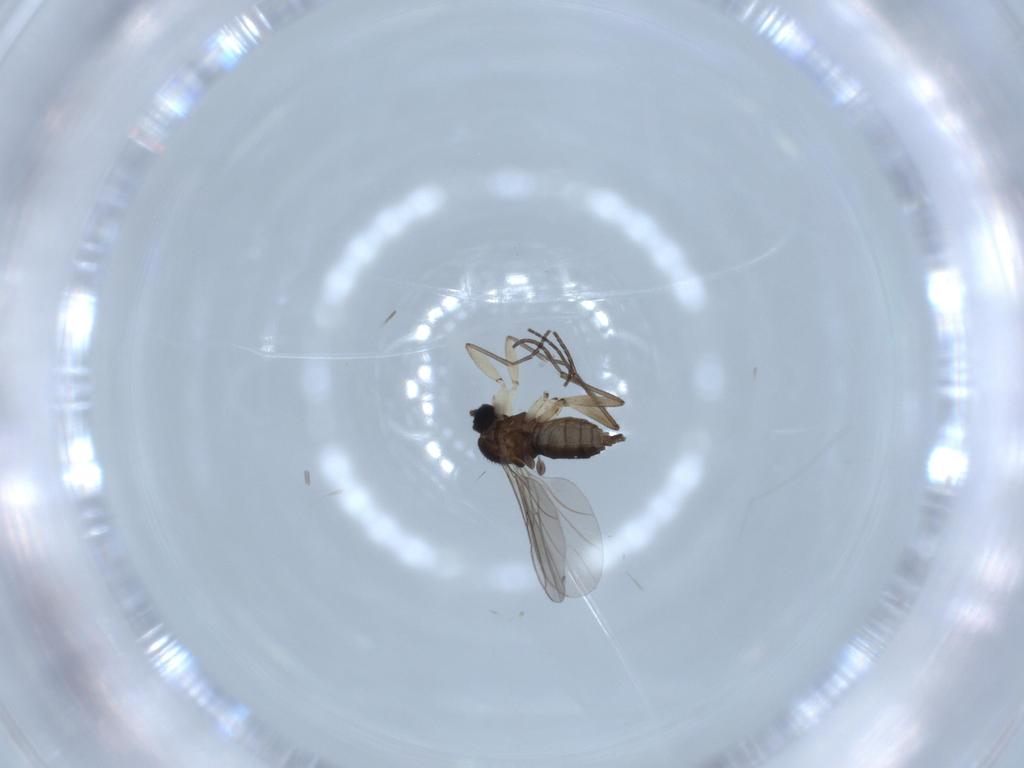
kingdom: Animalia
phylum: Arthropoda
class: Insecta
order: Diptera
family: Sciaridae
